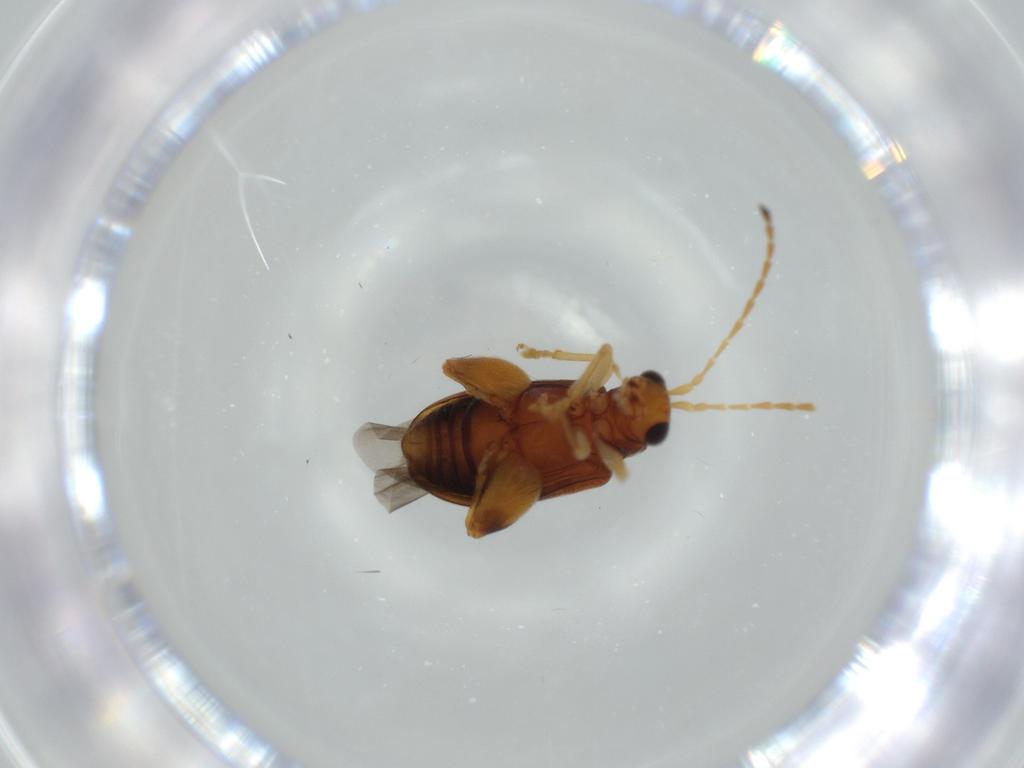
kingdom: Animalia
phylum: Arthropoda
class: Insecta
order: Coleoptera
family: Chrysomelidae
